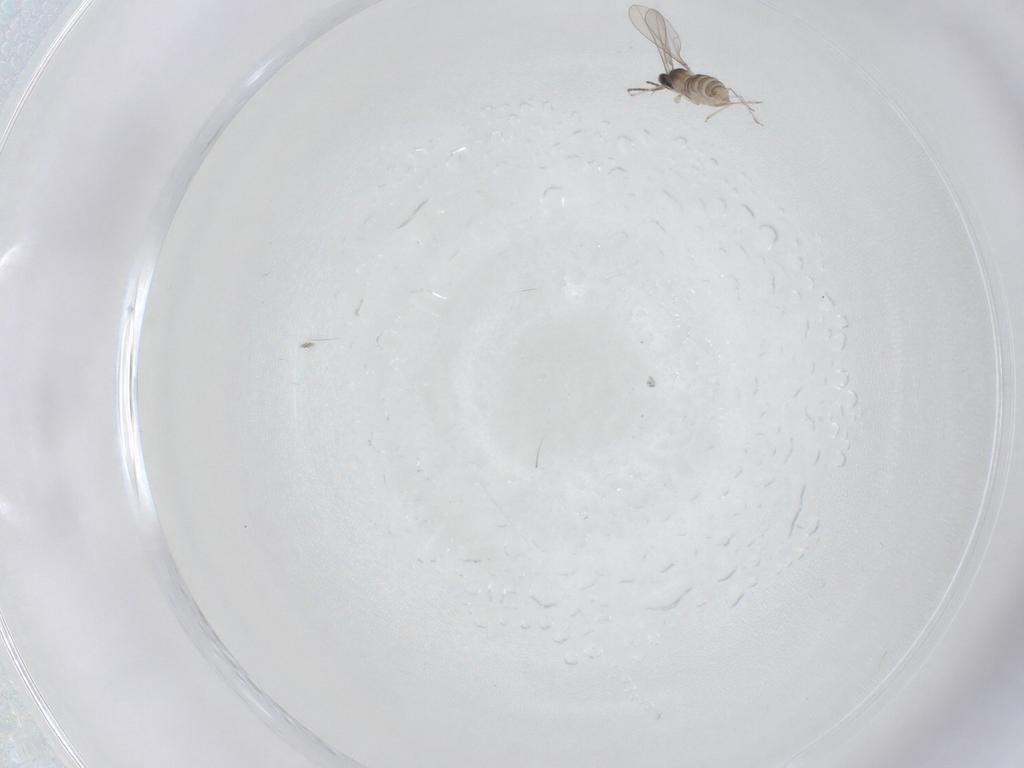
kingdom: Animalia
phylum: Arthropoda
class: Insecta
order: Diptera
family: Cecidomyiidae
